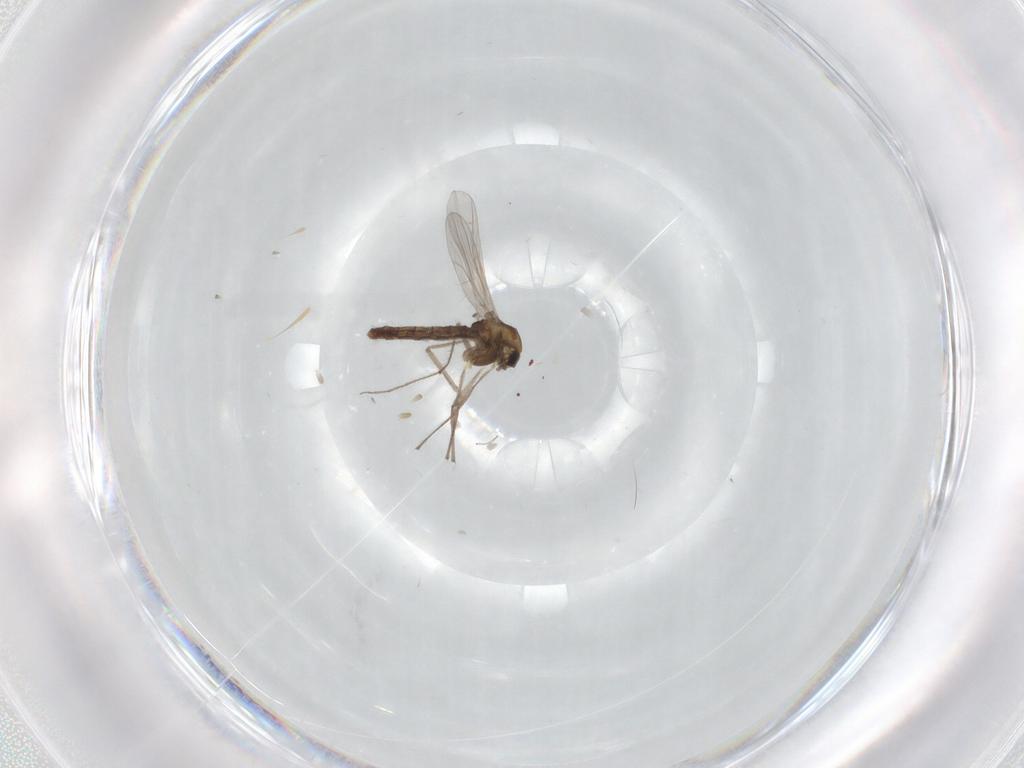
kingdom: Animalia
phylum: Arthropoda
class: Insecta
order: Diptera
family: Chironomidae
